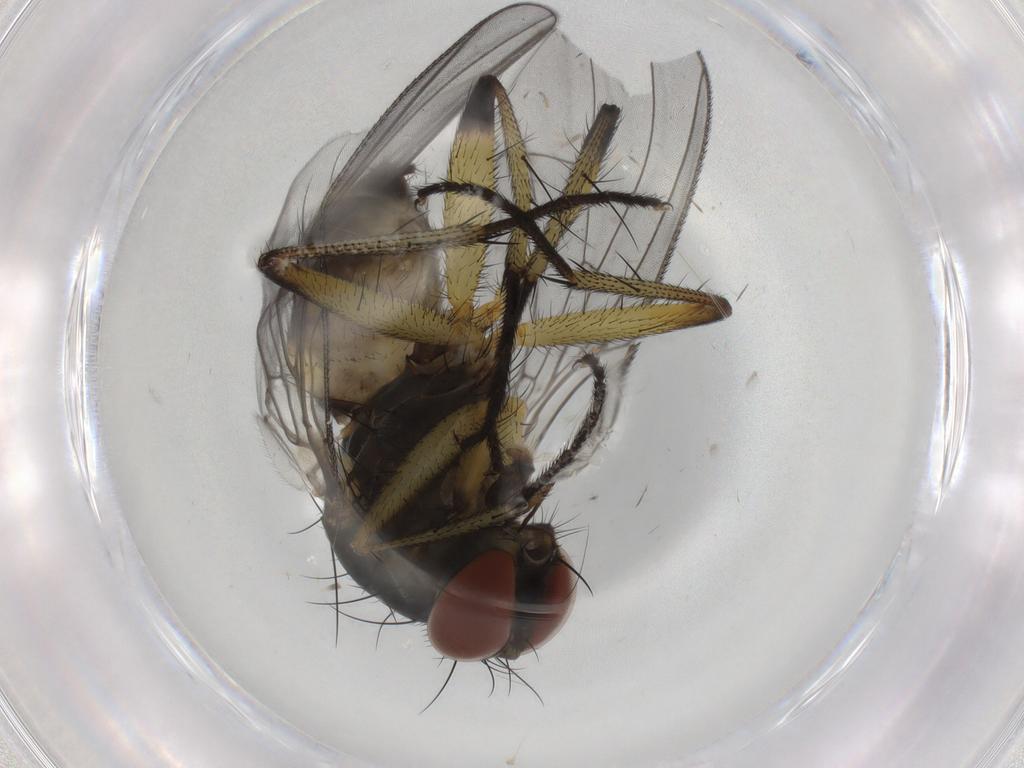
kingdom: Animalia
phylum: Arthropoda
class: Insecta
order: Diptera
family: Muscidae
